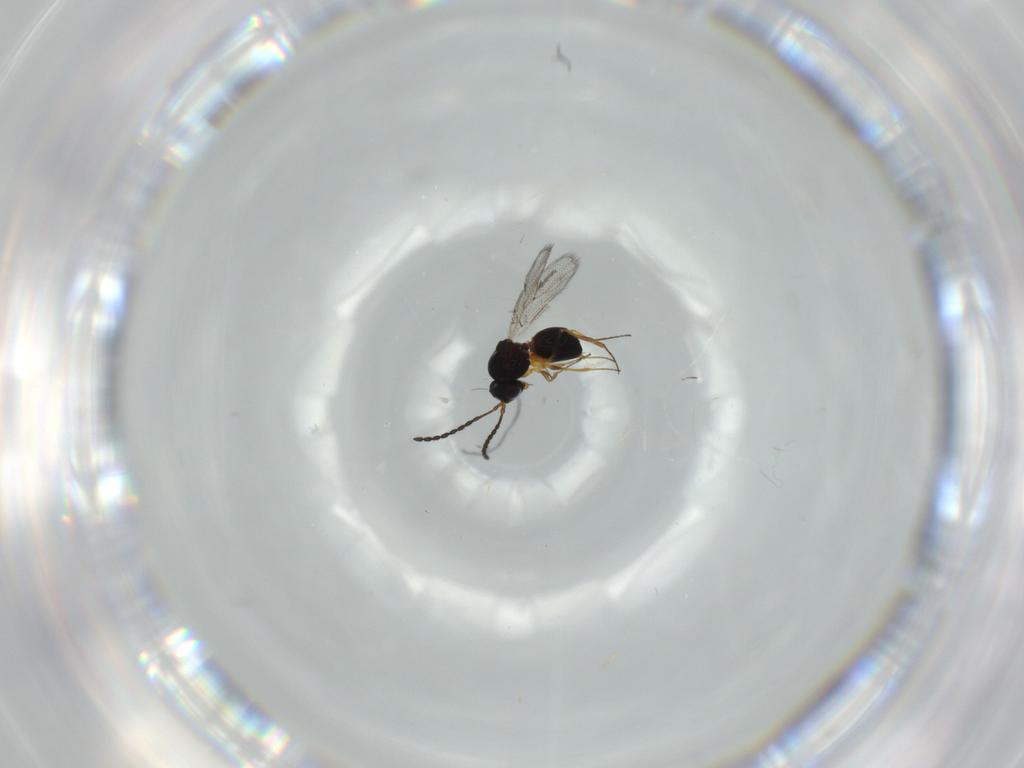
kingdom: Animalia
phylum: Arthropoda
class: Insecta
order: Hymenoptera
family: Figitidae
